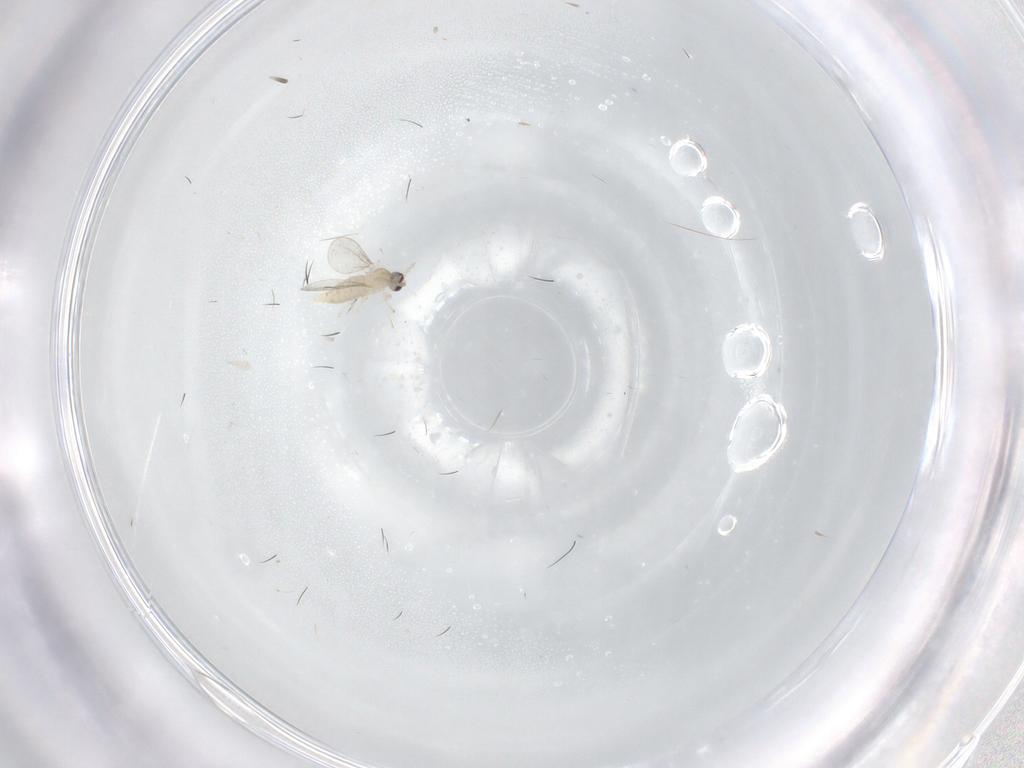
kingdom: Animalia
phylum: Arthropoda
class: Insecta
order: Diptera
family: Cecidomyiidae
